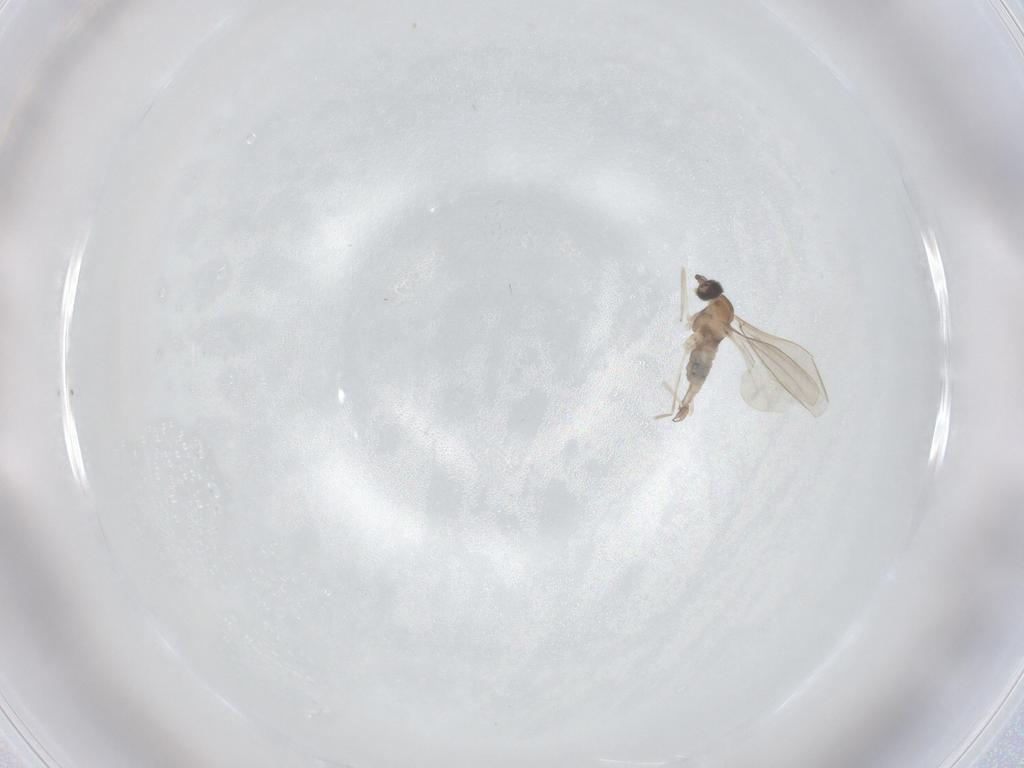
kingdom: Animalia
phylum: Arthropoda
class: Insecta
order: Diptera
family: Cecidomyiidae
